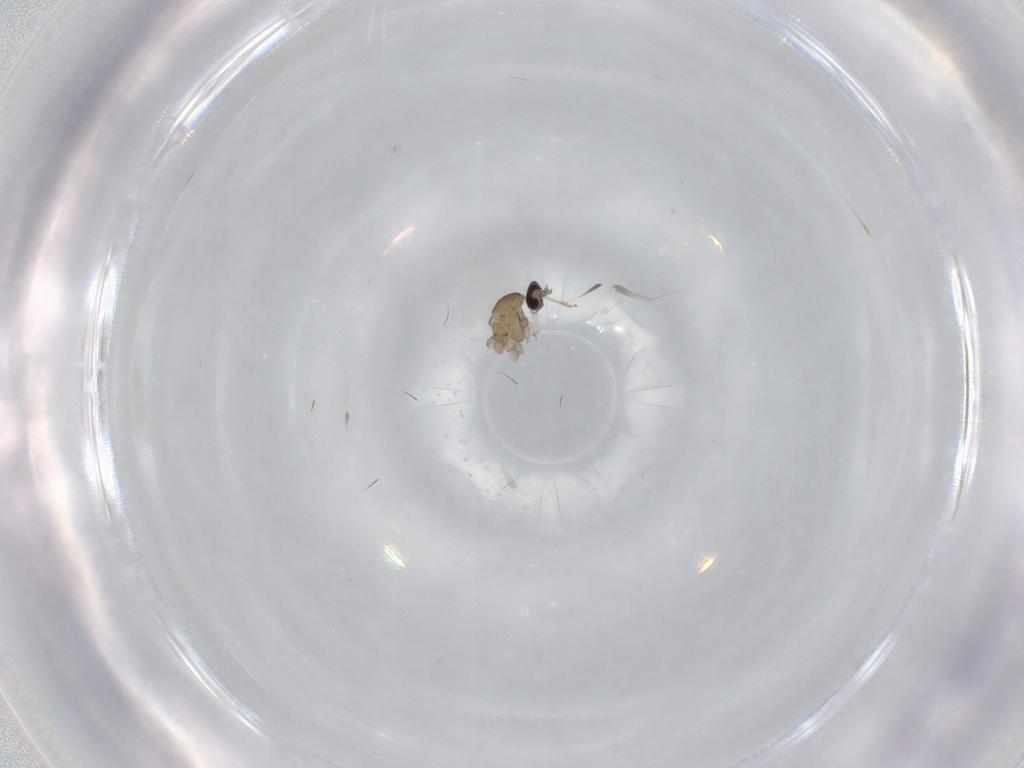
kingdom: Animalia
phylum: Arthropoda
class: Insecta
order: Diptera
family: Cecidomyiidae
